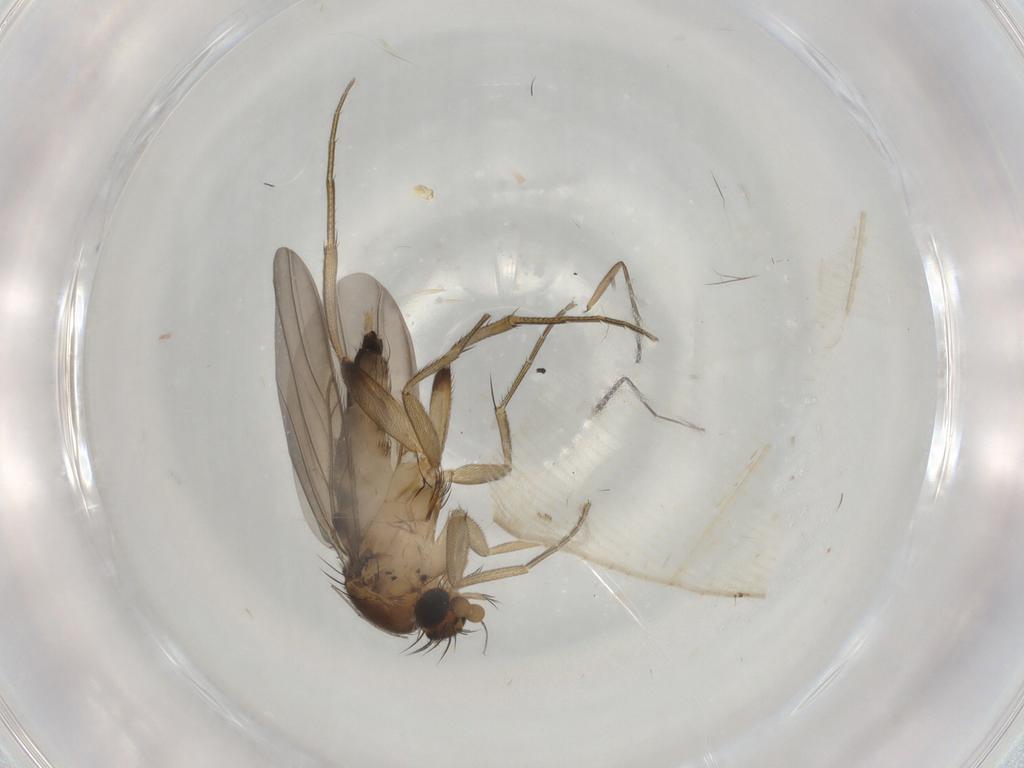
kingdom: Animalia
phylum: Arthropoda
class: Insecta
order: Diptera
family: Phoridae
